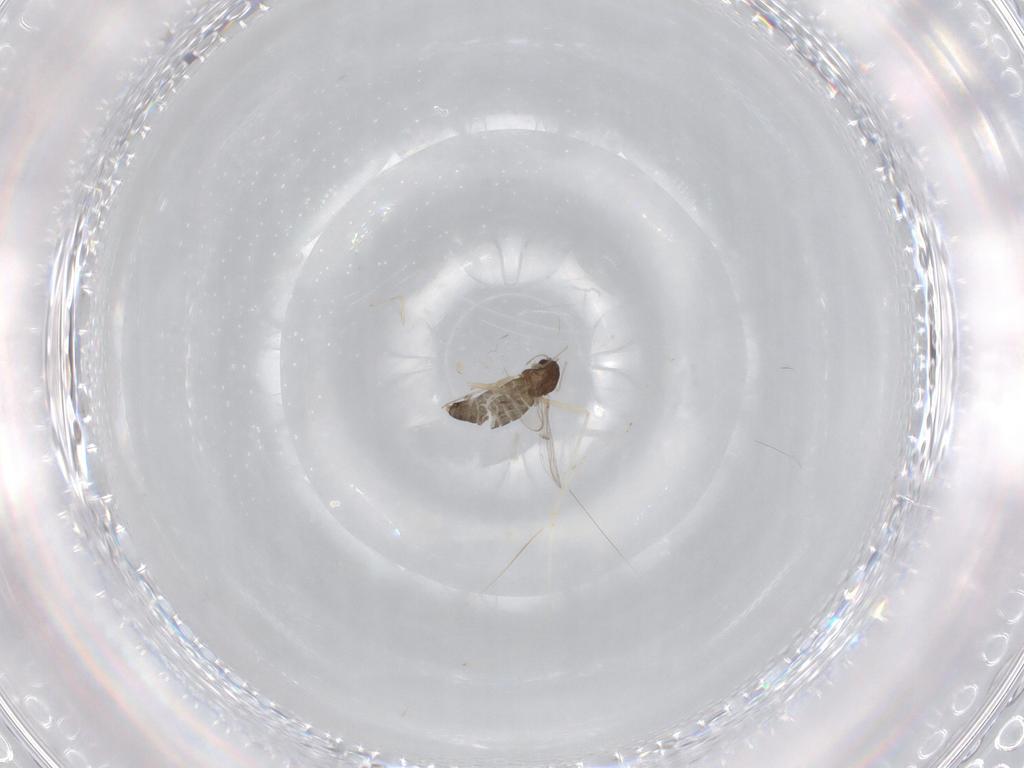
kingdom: Animalia
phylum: Arthropoda
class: Insecta
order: Diptera
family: Chironomidae
